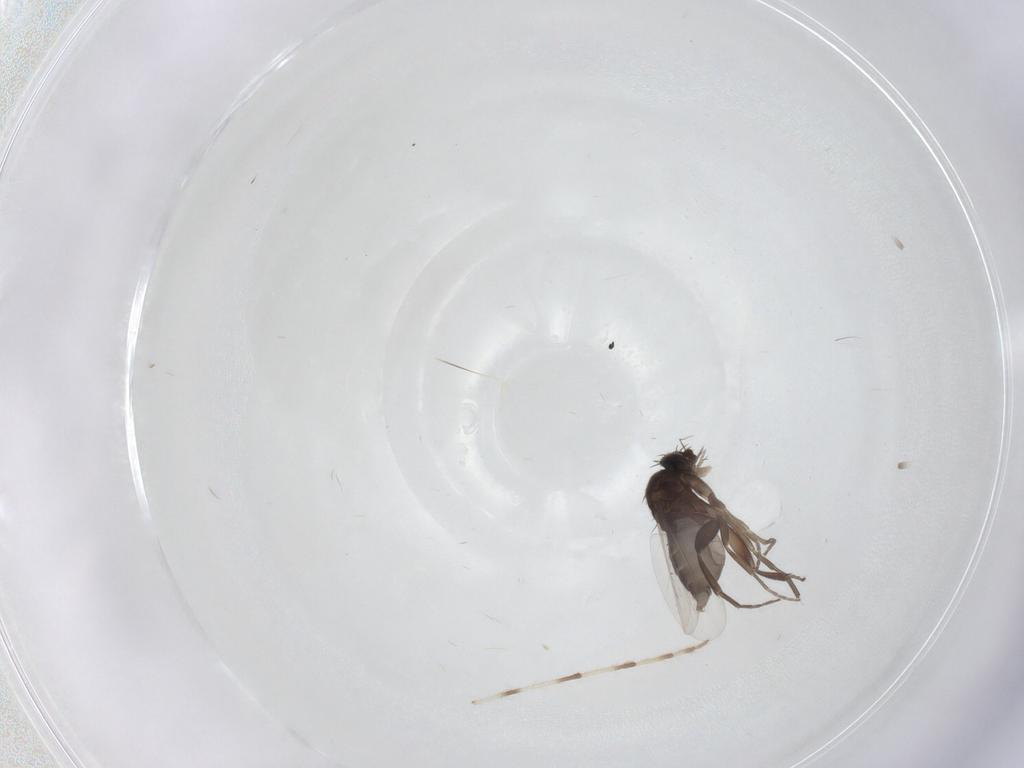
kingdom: Animalia
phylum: Arthropoda
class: Insecta
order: Diptera
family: Phoridae
